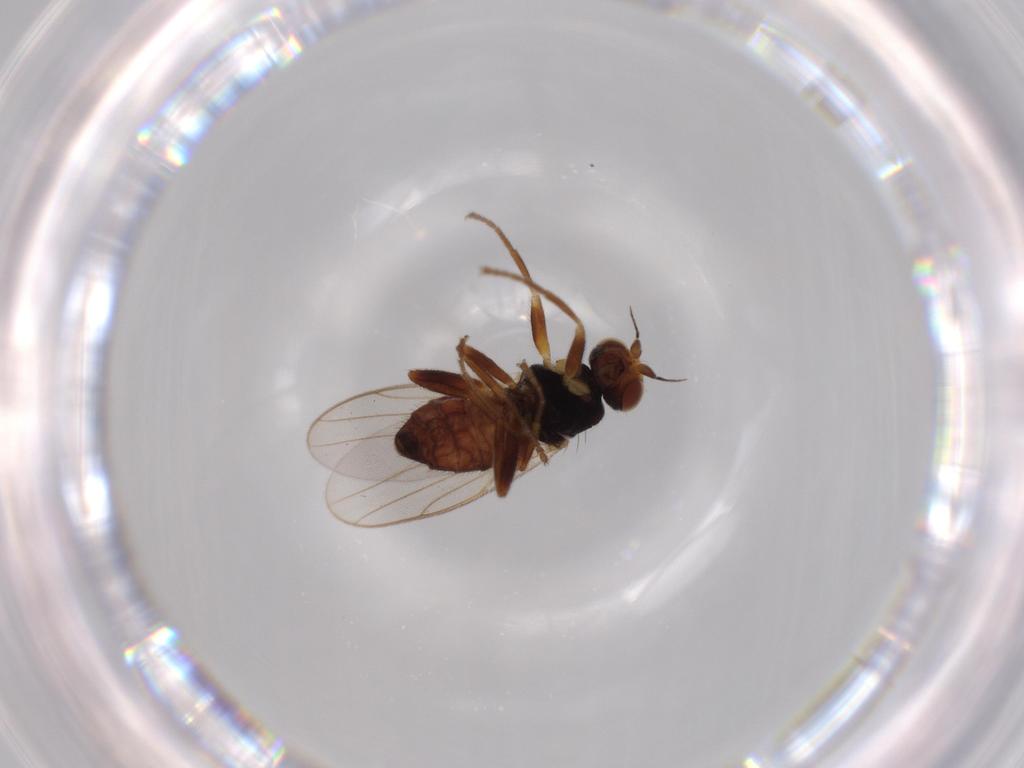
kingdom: Animalia
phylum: Arthropoda
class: Insecta
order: Diptera
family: Chloropidae
